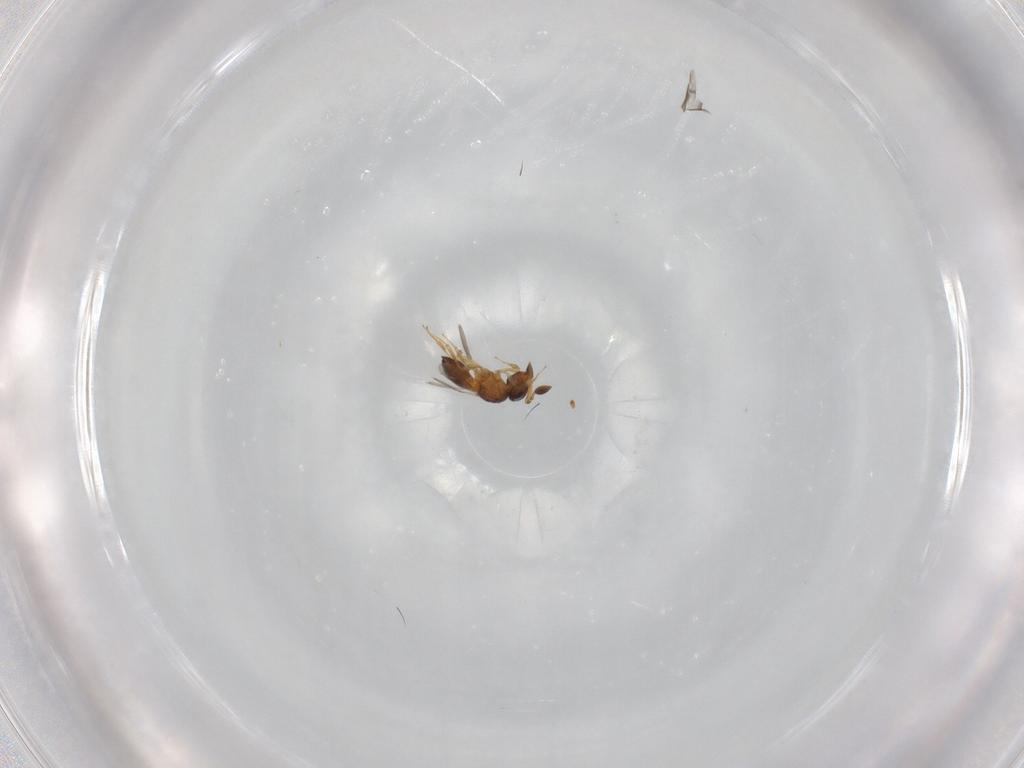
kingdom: Animalia
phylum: Arthropoda
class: Insecta
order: Hymenoptera
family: Scelionidae
